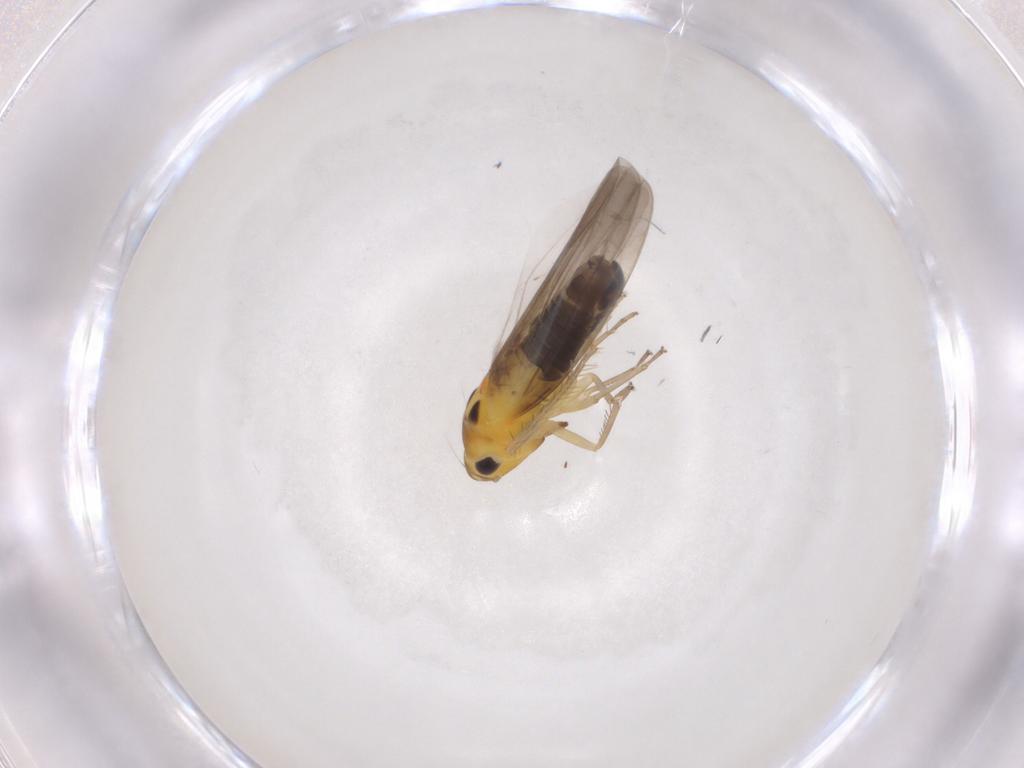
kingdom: Animalia
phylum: Arthropoda
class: Insecta
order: Hemiptera
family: Cicadellidae
